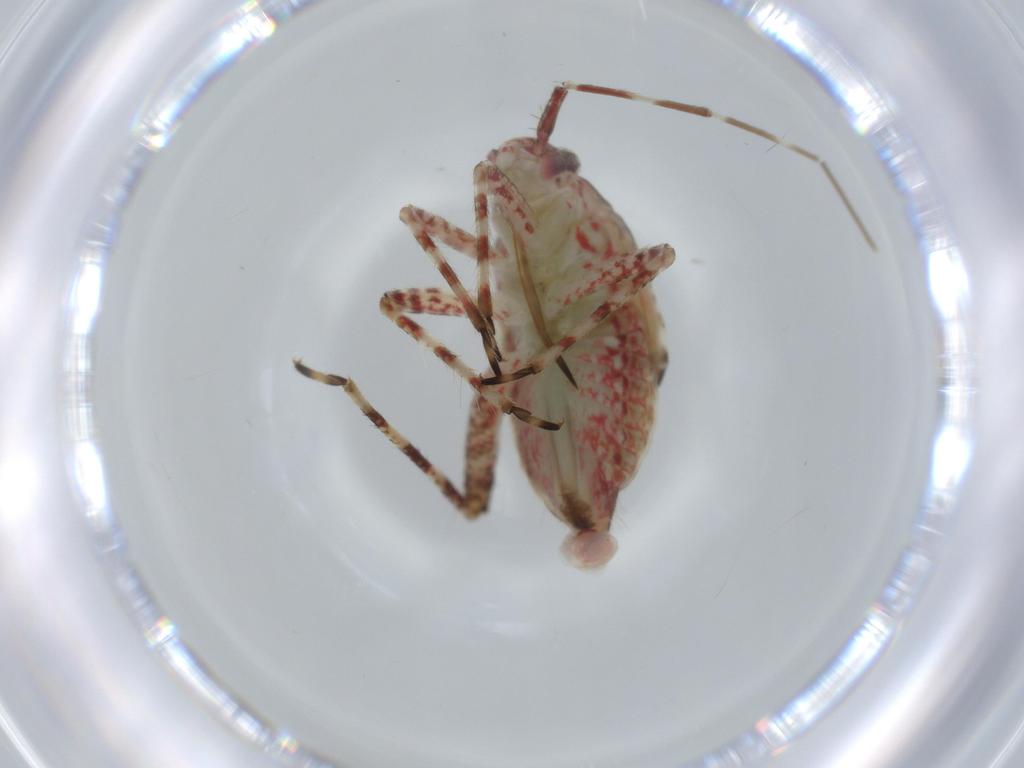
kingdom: Animalia
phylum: Arthropoda
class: Insecta
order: Hemiptera
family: Miridae
